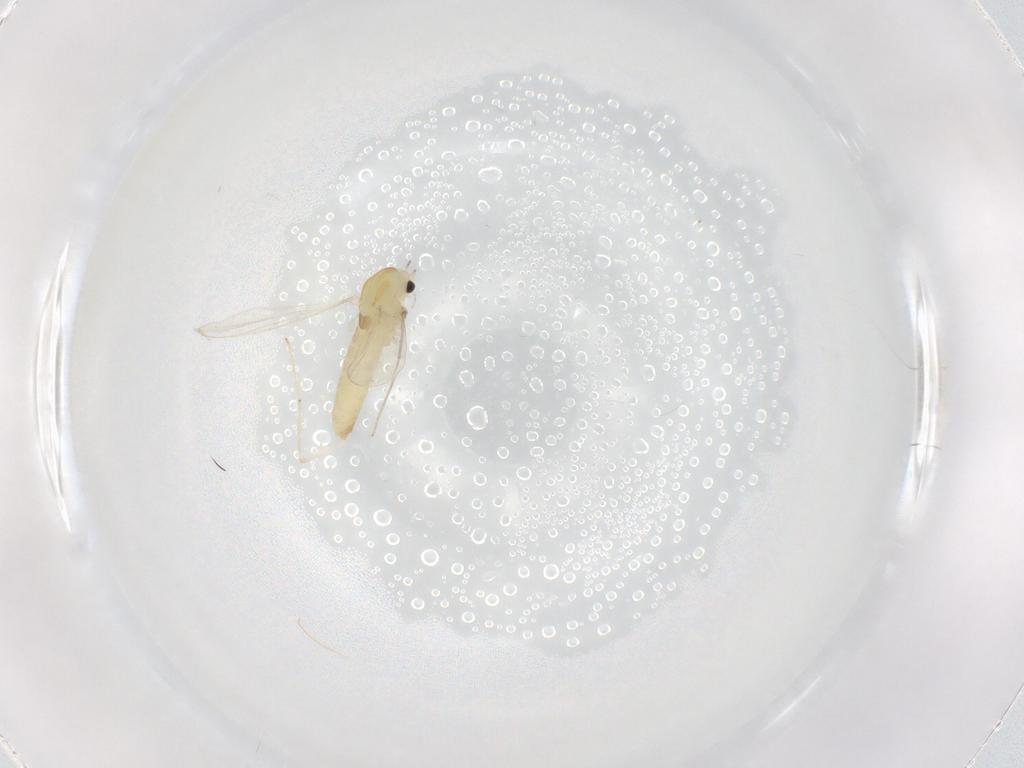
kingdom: Animalia
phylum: Arthropoda
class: Insecta
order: Diptera
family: Chironomidae
